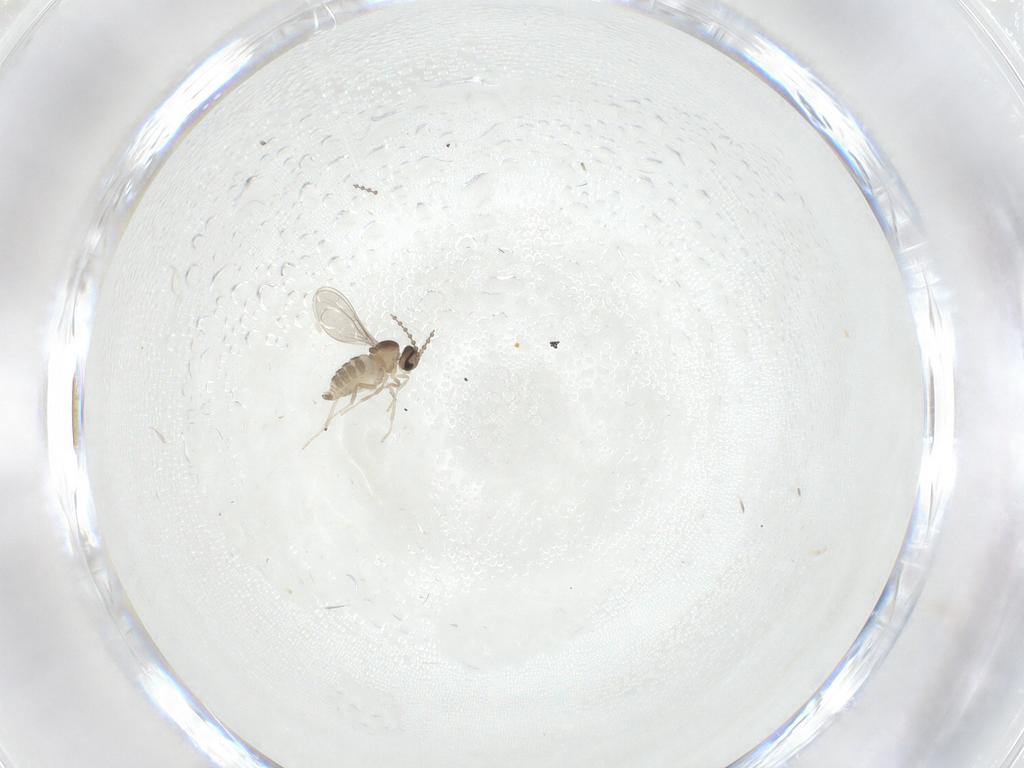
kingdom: Animalia
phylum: Arthropoda
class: Insecta
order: Diptera
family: Cecidomyiidae
